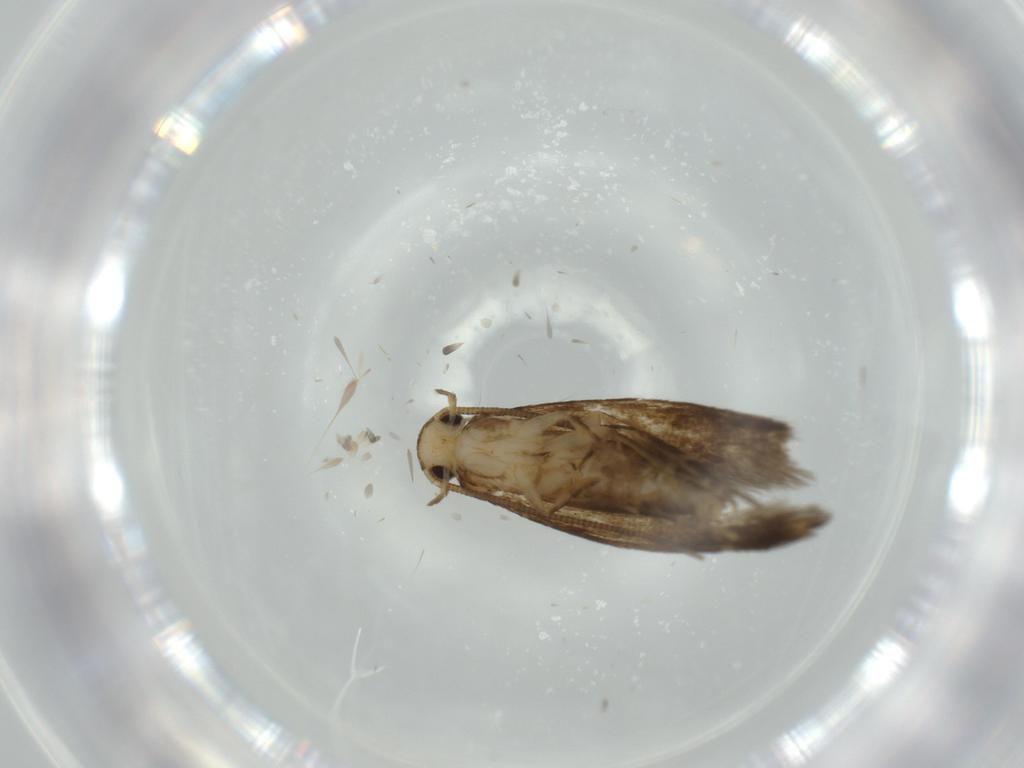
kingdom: Animalia
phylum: Arthropoda
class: Insecta
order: Lepidoptera
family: Tineidae
